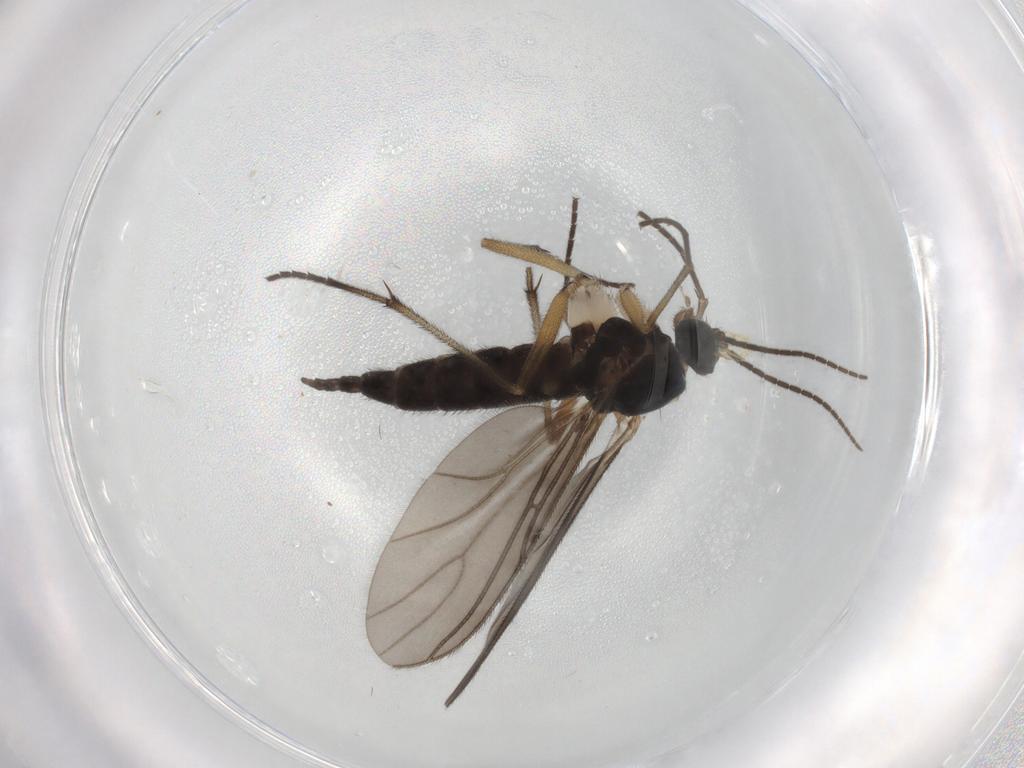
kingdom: Animalia
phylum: Arthropoda
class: Insecta
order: Diptera
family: Sciaridae
